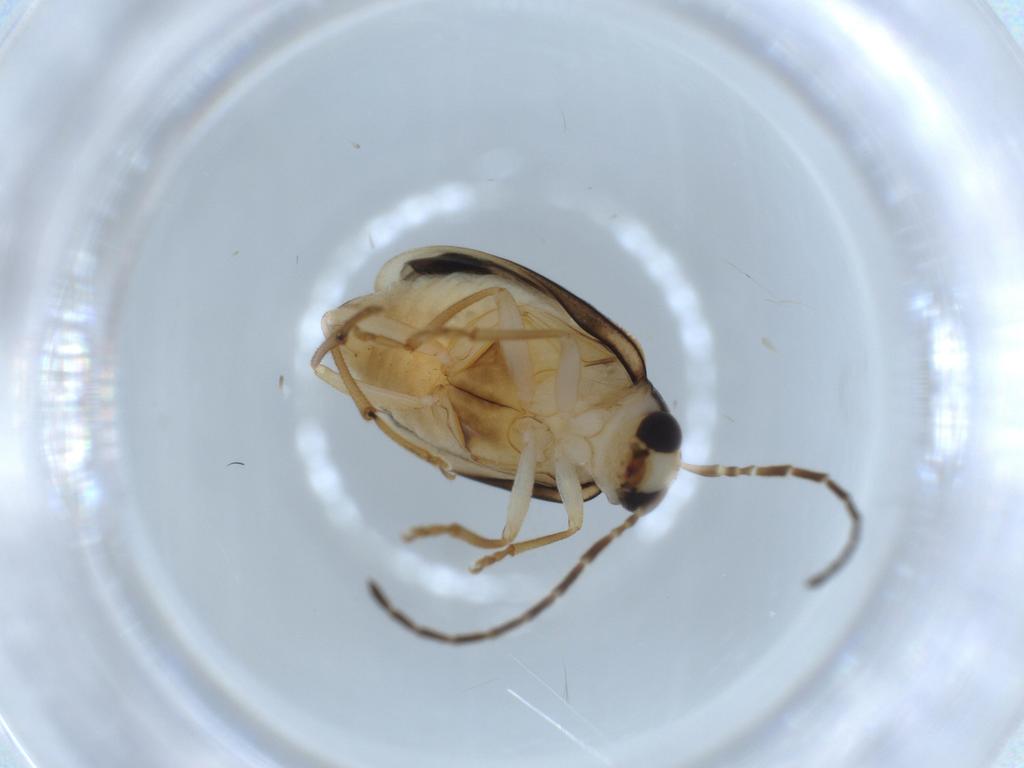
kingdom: Animalia
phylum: Arthropoda
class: Insecta
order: Coleoptera
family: Chrysomelidae
